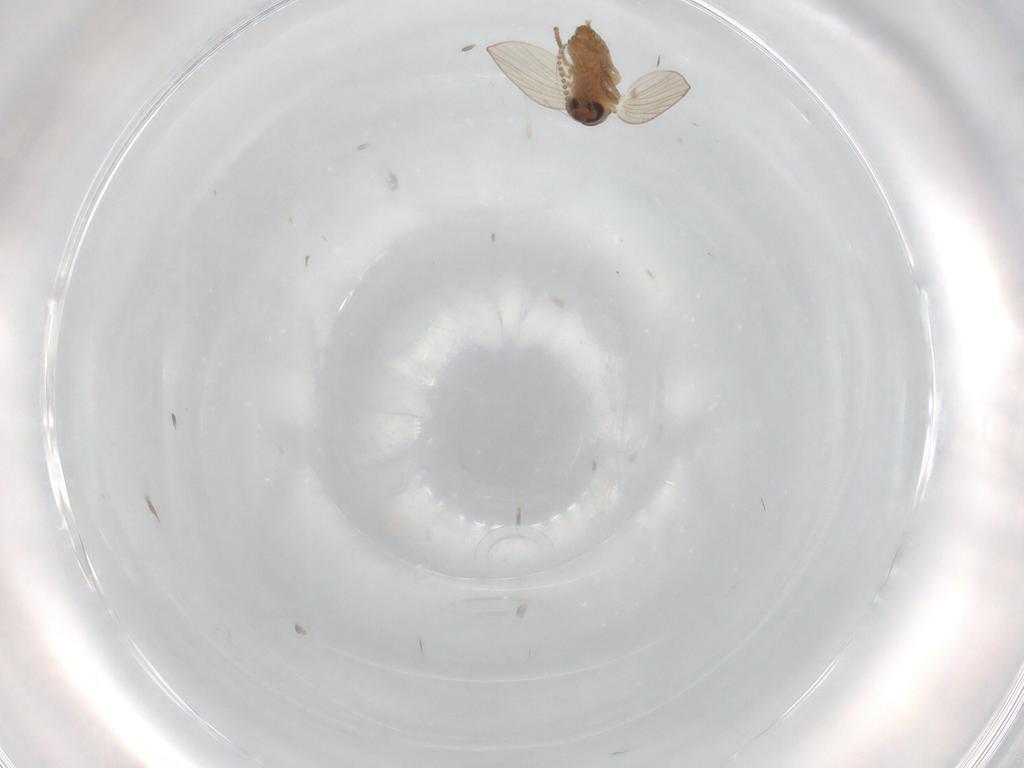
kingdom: Animalia
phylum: Arthropoda
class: Insecta
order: Diptera
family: Psychodidae
